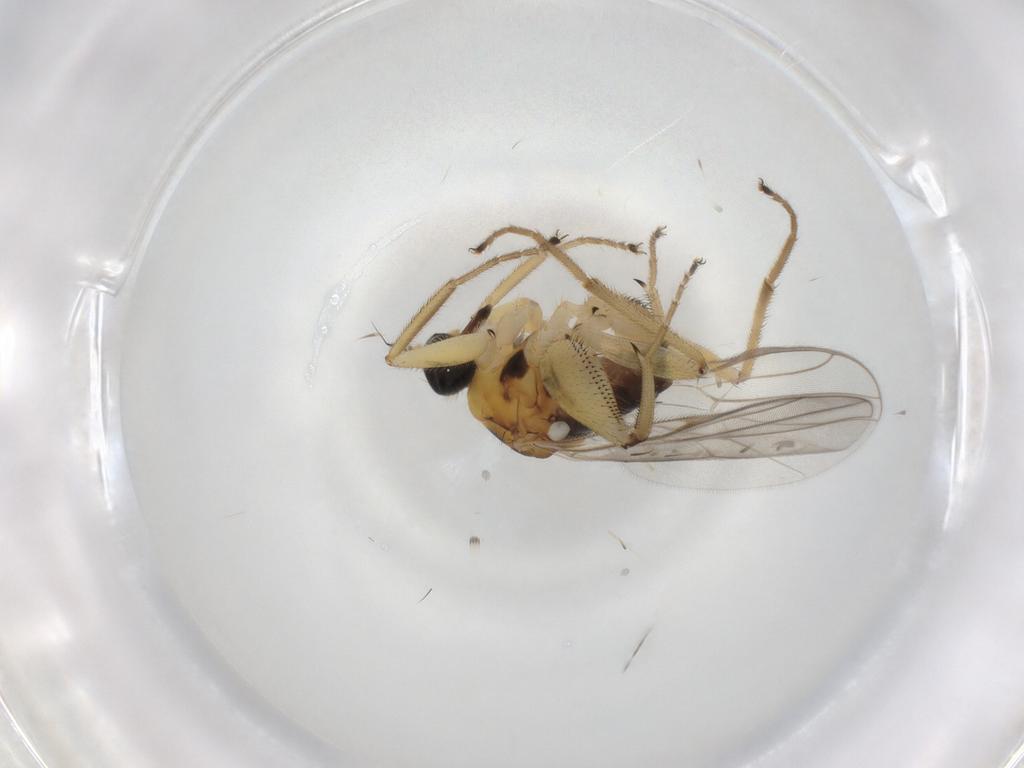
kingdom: Animalia
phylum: Arthropoda
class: Insecta
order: Diptera
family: Hybotidae
